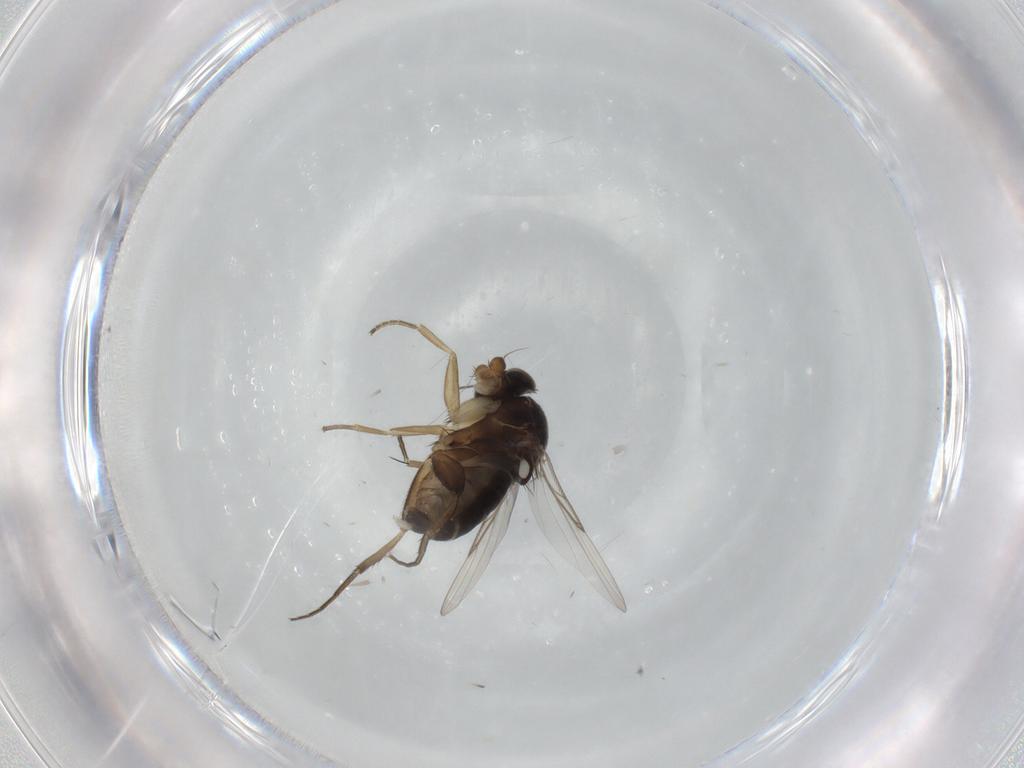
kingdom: Animalia
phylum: Arthropoda
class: Insecta
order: Diptera
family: Phoridae
